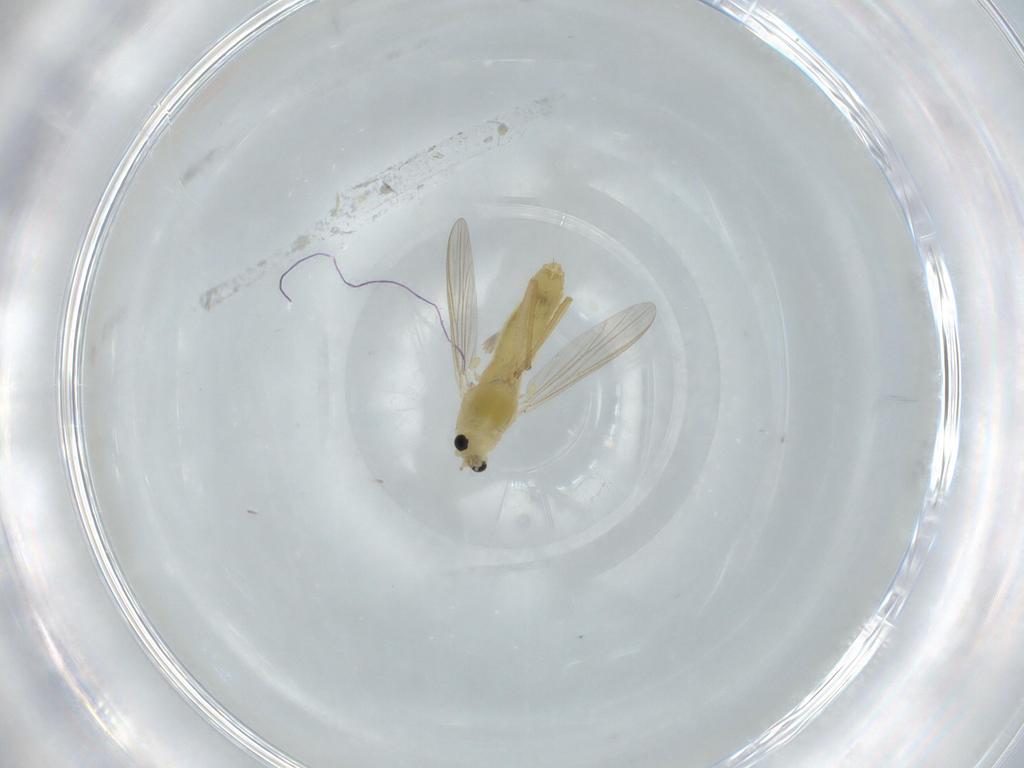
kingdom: Animalia
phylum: Arthropoda
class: Insecta
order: Diptera
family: Chironomidae
